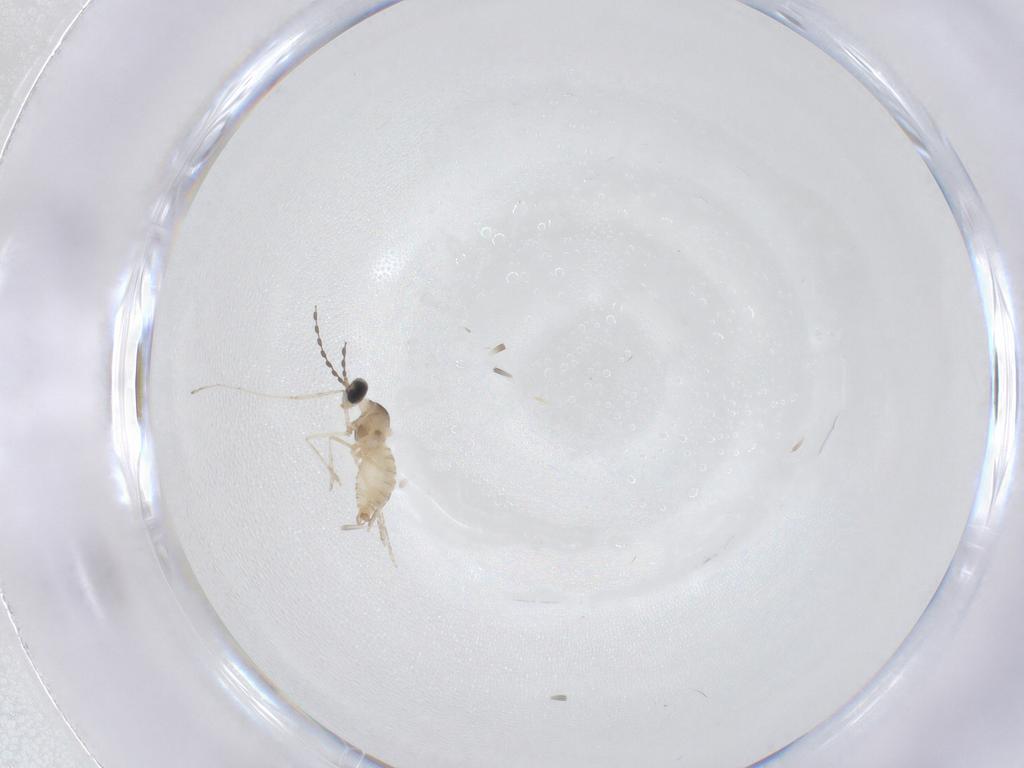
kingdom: Animalia
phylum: Arthropoda
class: Insecta
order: Diptera
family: Cecidomyiidae
